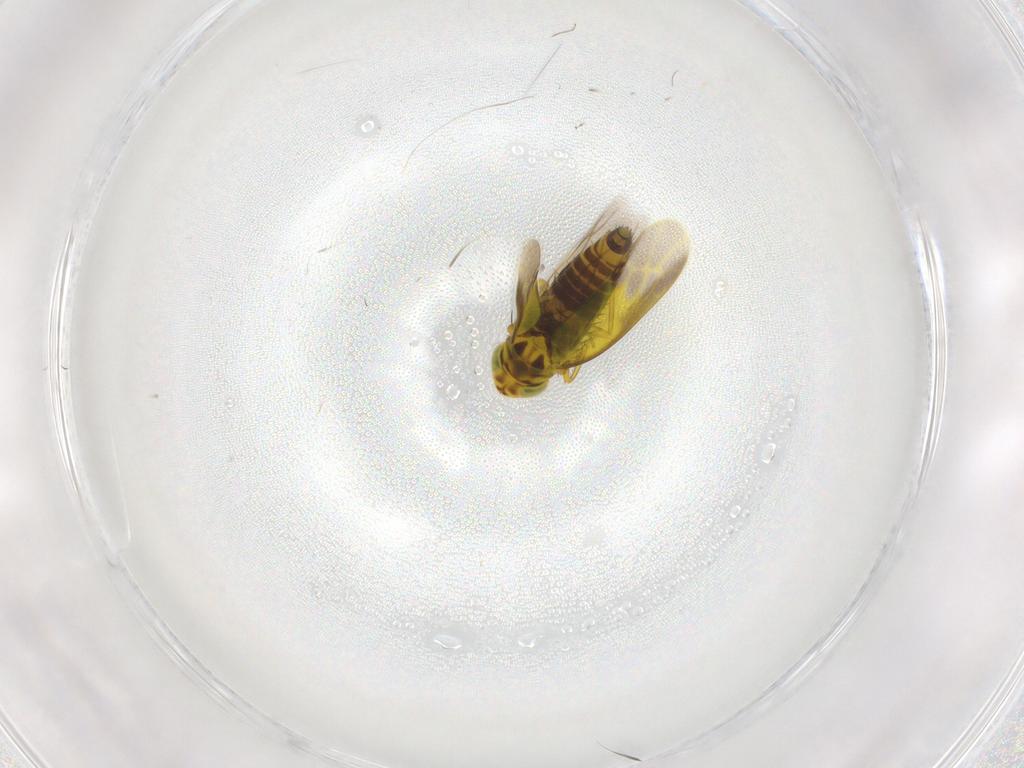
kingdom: Animalia
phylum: Arthropoda
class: Insecta
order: Hemiptera
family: Cicadellidae
